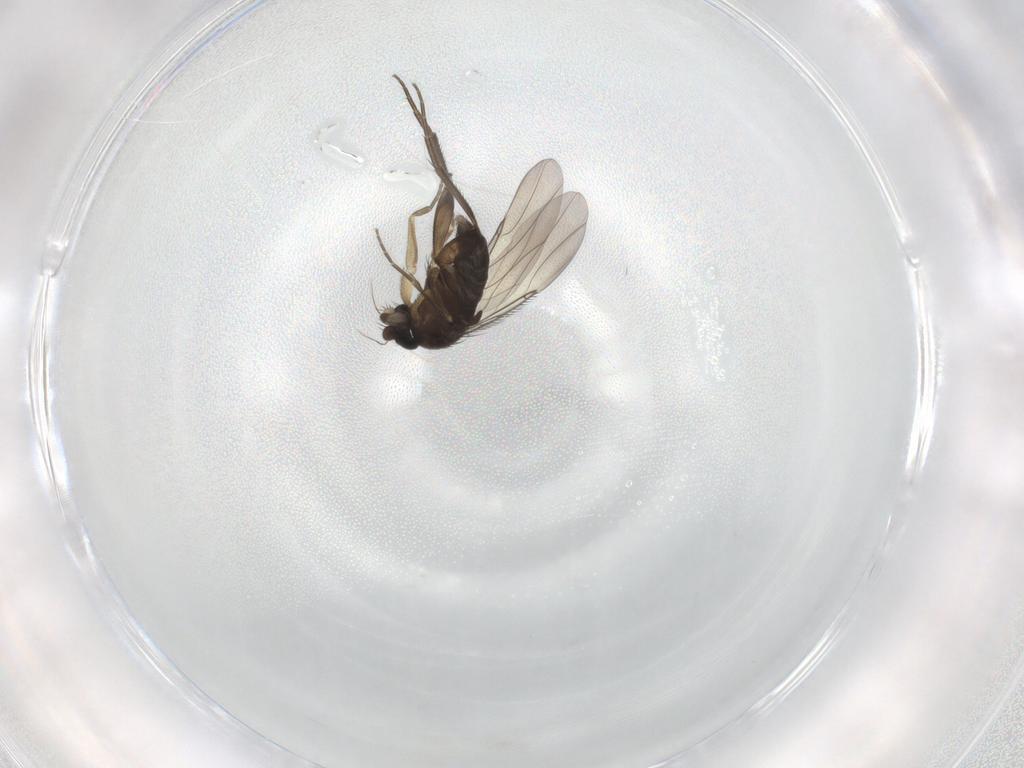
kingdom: Animalia
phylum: Arthropoda
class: Insecta
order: Diptera
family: Phoridae
